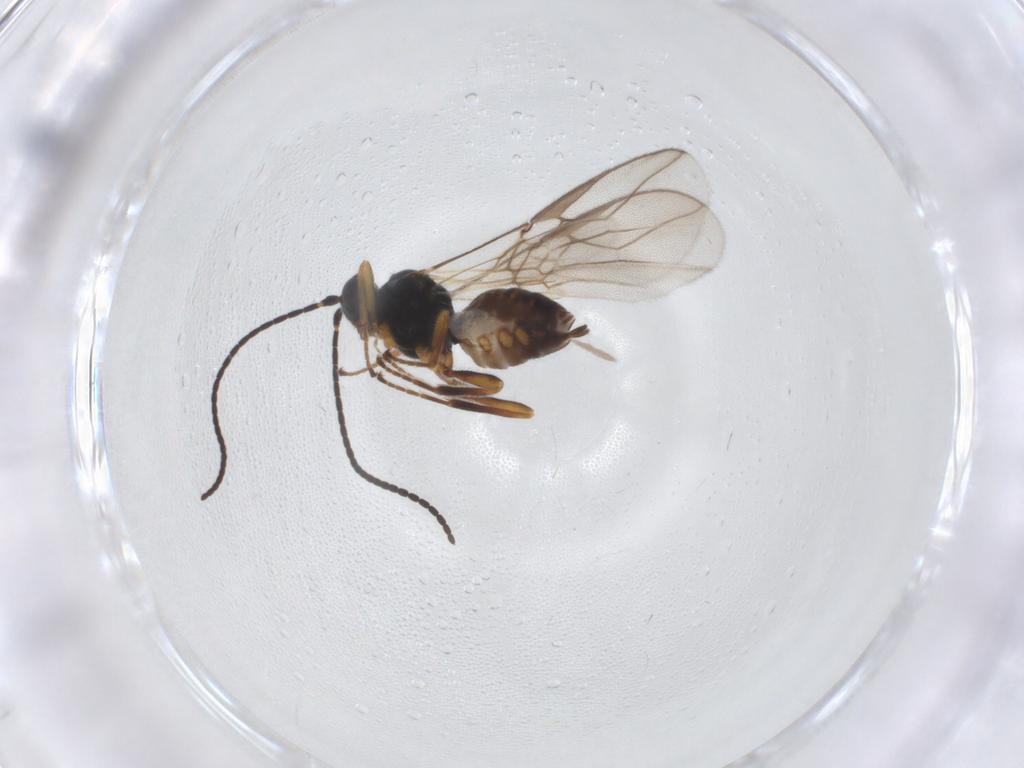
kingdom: Animalia
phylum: Arthropoda
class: Insecta
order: Hymenoptera
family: Braconidae
